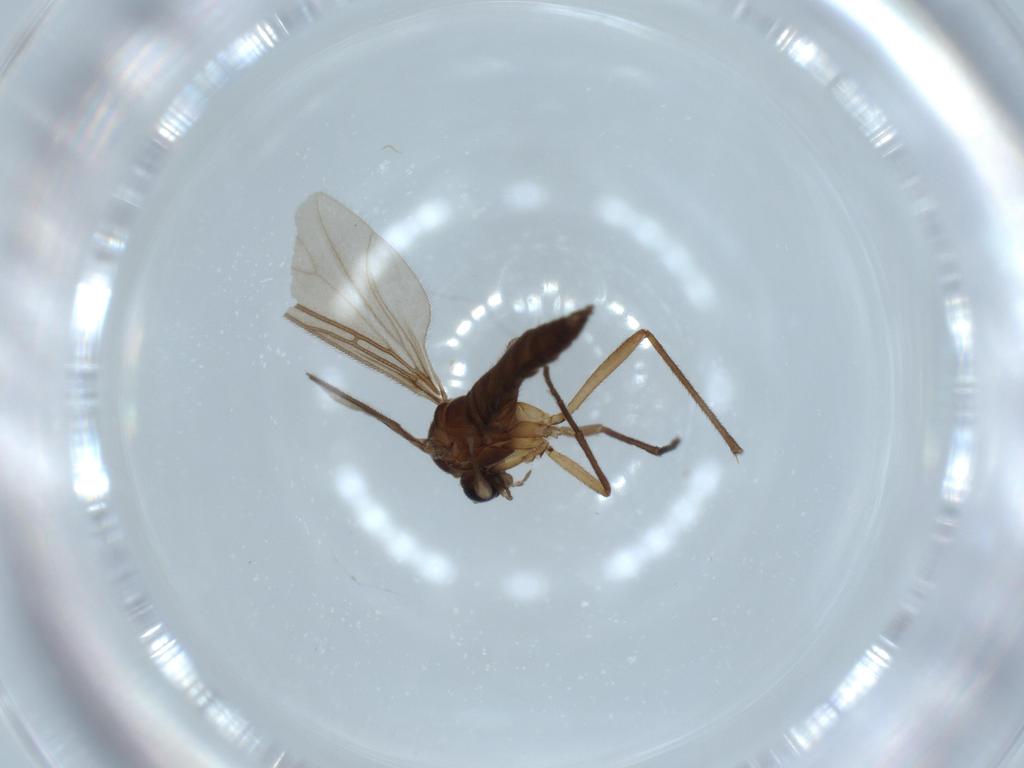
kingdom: Animalia
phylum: Arthropoda
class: Insecta
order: Diptera
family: Sciaridae
